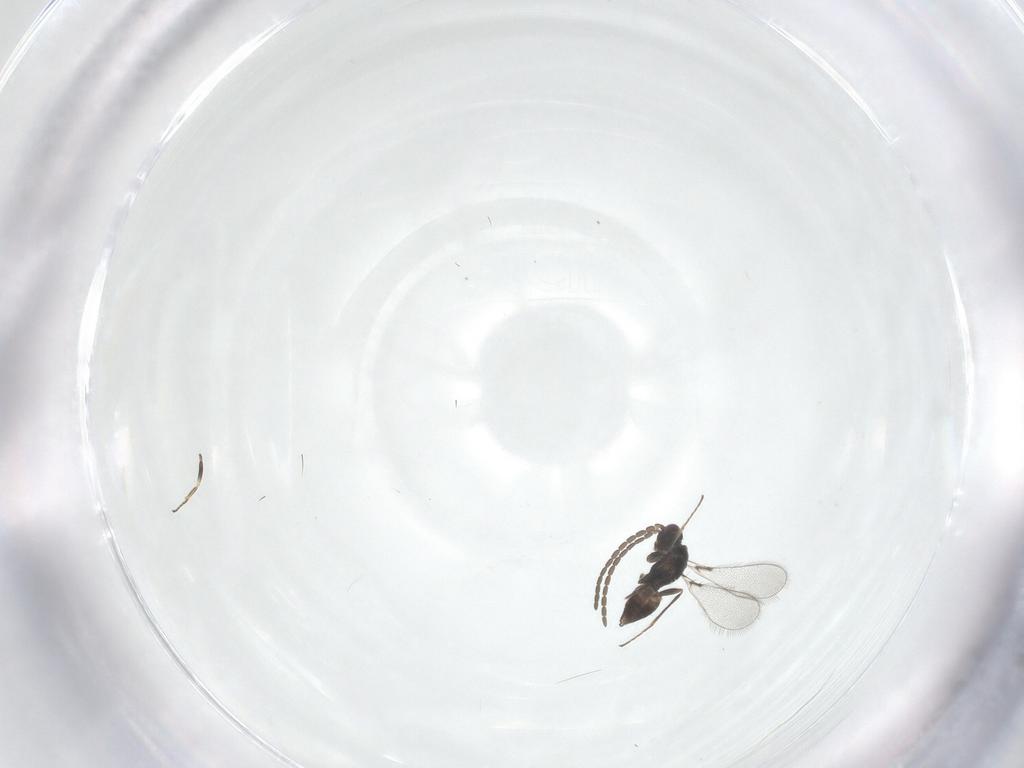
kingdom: Animalia
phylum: Arthropoda
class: Insecta
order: Hymenoptera
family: Mymaridae
